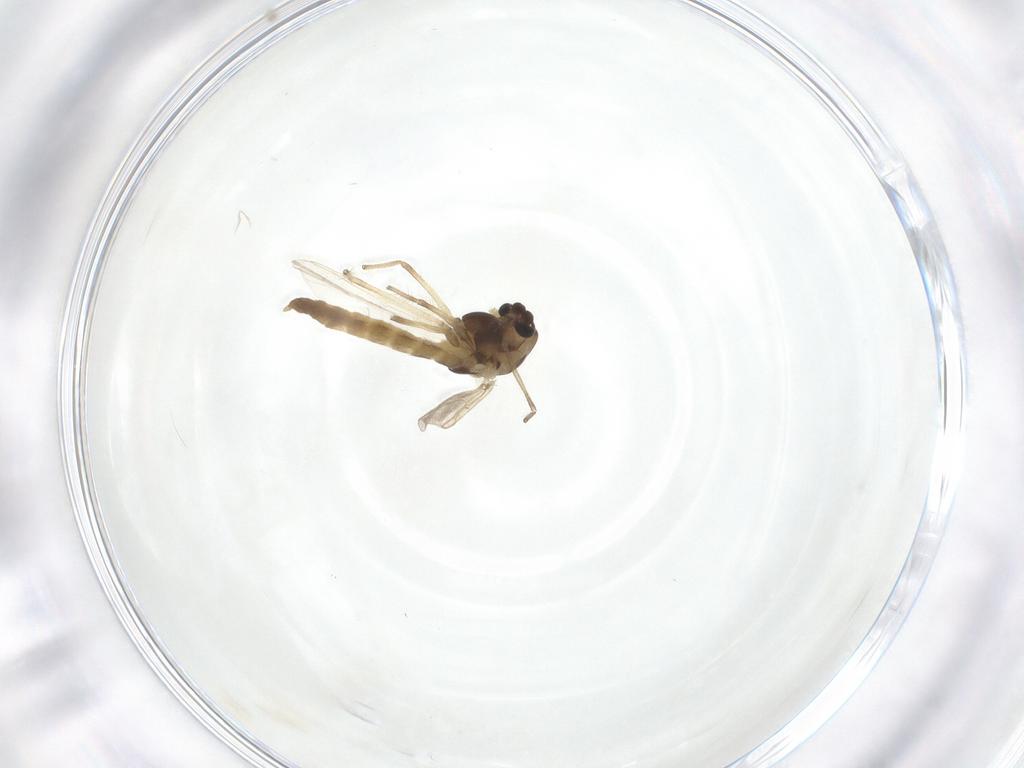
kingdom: Animalia
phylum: Arthropoda
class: Insecta
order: Diptera
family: Chironomidae
